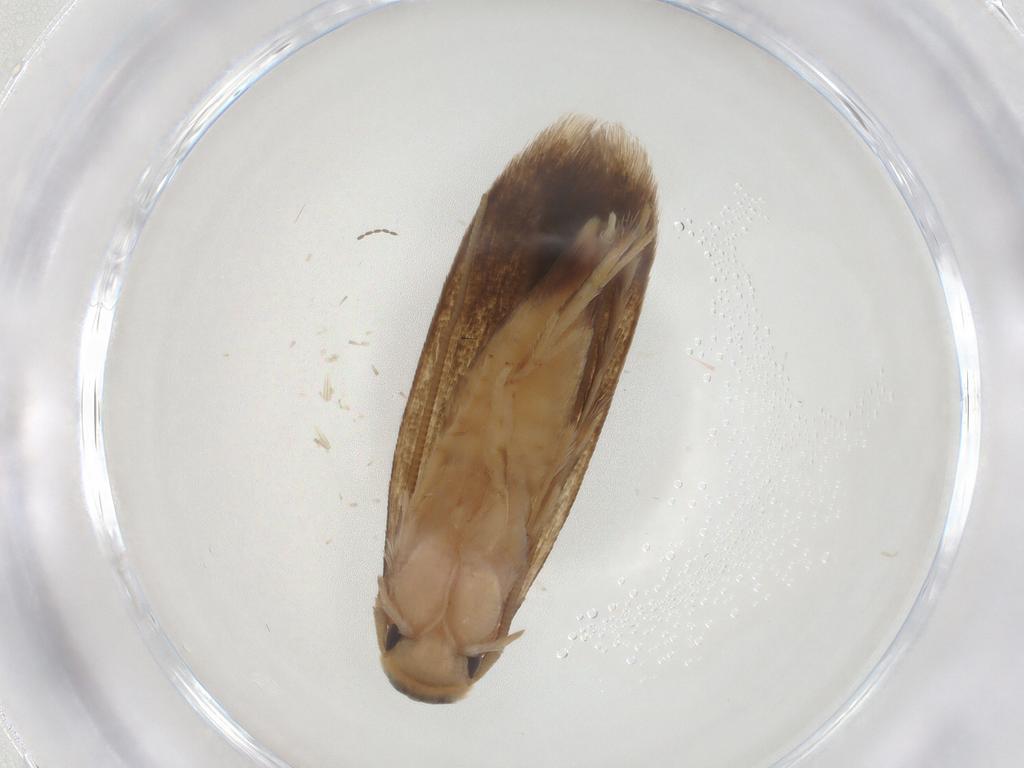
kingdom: Animalia
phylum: Arthropoda
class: Insecta
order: Lepidoptera
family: Tineidae
